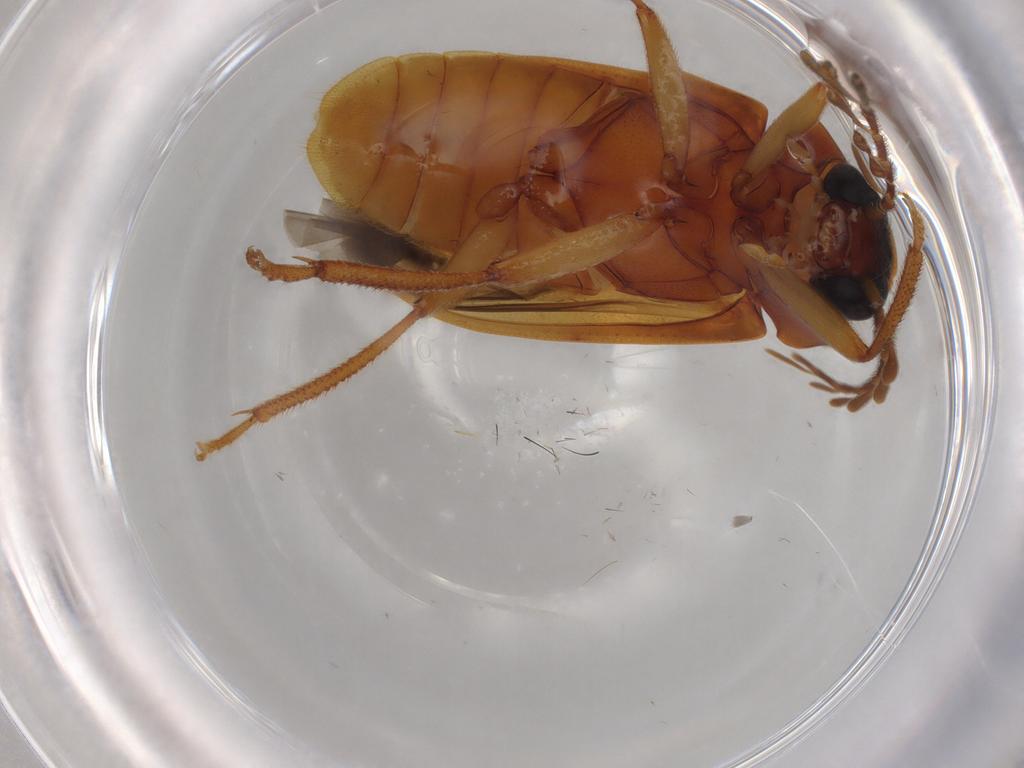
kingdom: Animalia
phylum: Arthropoda
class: Insecta
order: Coleoptera
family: Ptilodactylidae
